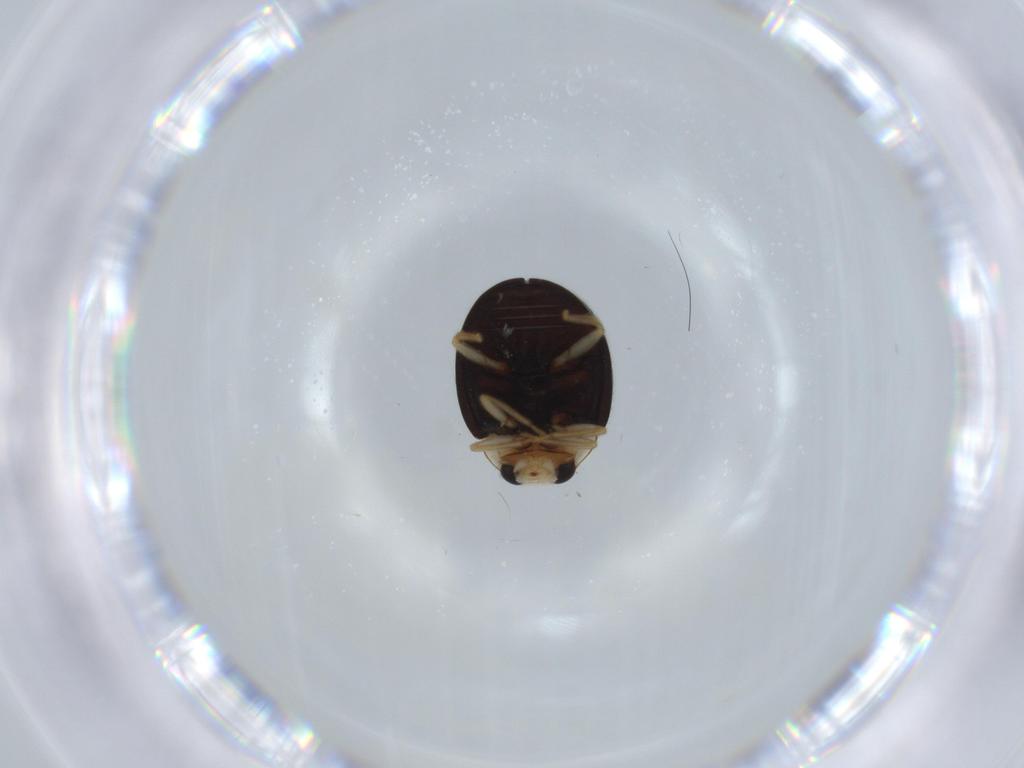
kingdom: Animalia
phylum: Arthropoda
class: Insecta
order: Coleoptera
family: Coccinellidae
